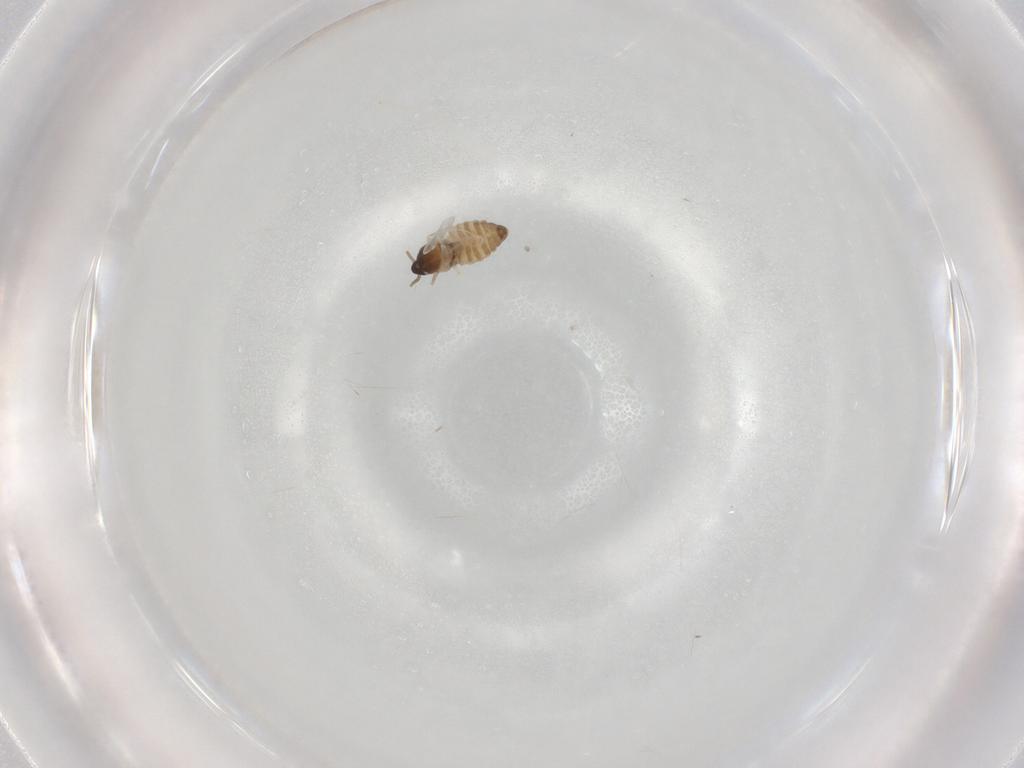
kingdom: Animalia
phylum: Arthropoda
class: Insecta
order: Diptera
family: Cecidomyiidae
